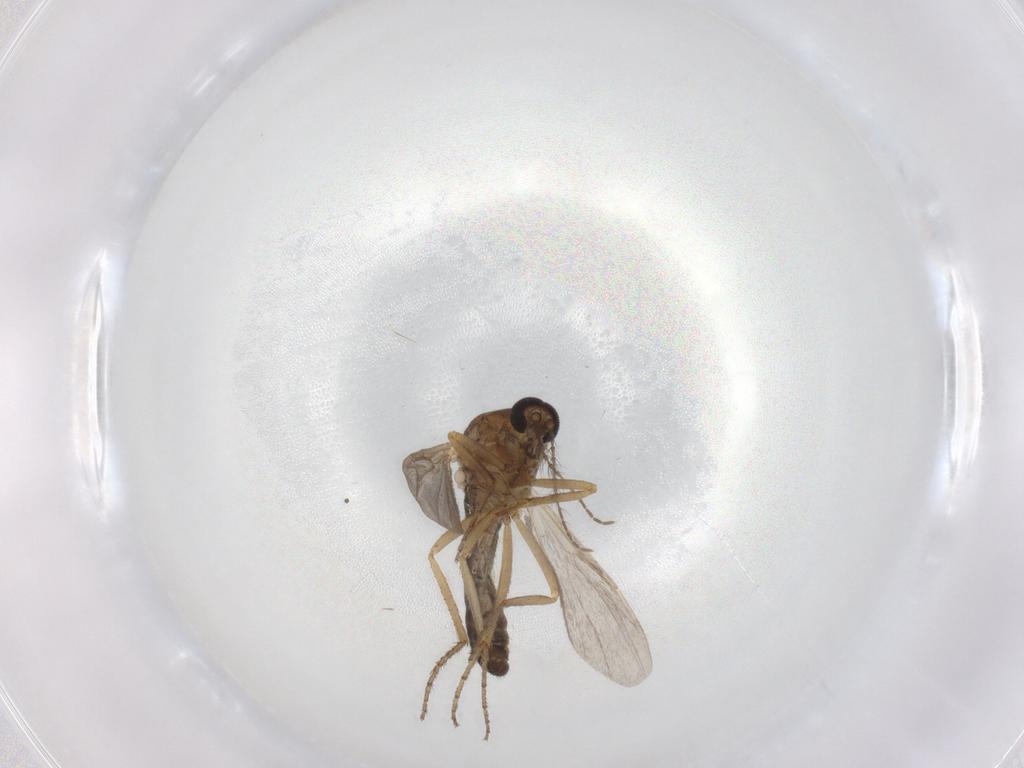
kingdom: Animalia
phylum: Arthropoda
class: Insecta
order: Diptera
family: Ceratopogonidae
